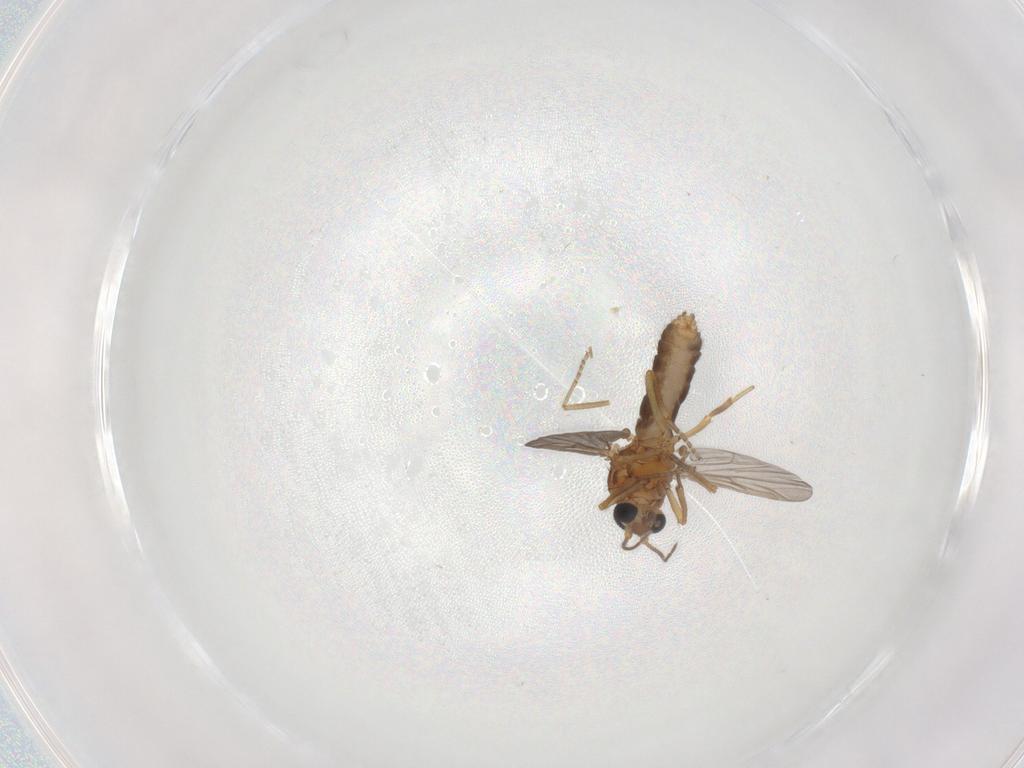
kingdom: Animalia
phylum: Arthropoda
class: Insecta
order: Diptera
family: Ceratopogonidae
